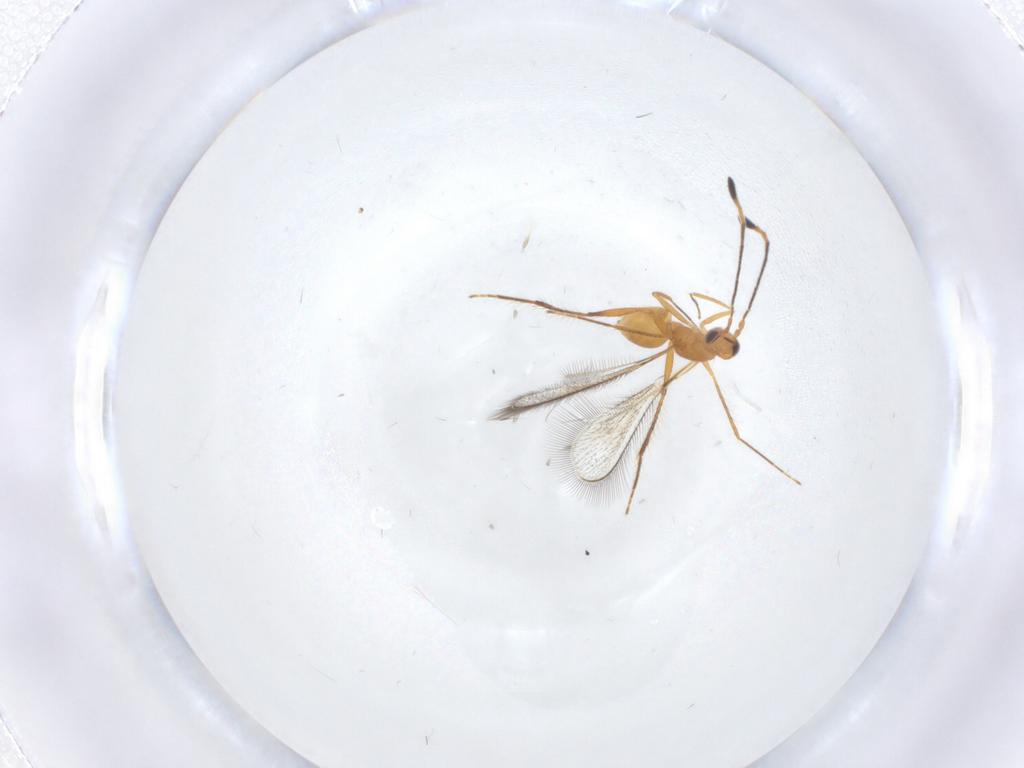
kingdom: Animalia
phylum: Arthropoda
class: Insecta
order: Hymenoptera
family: Mymaridae
